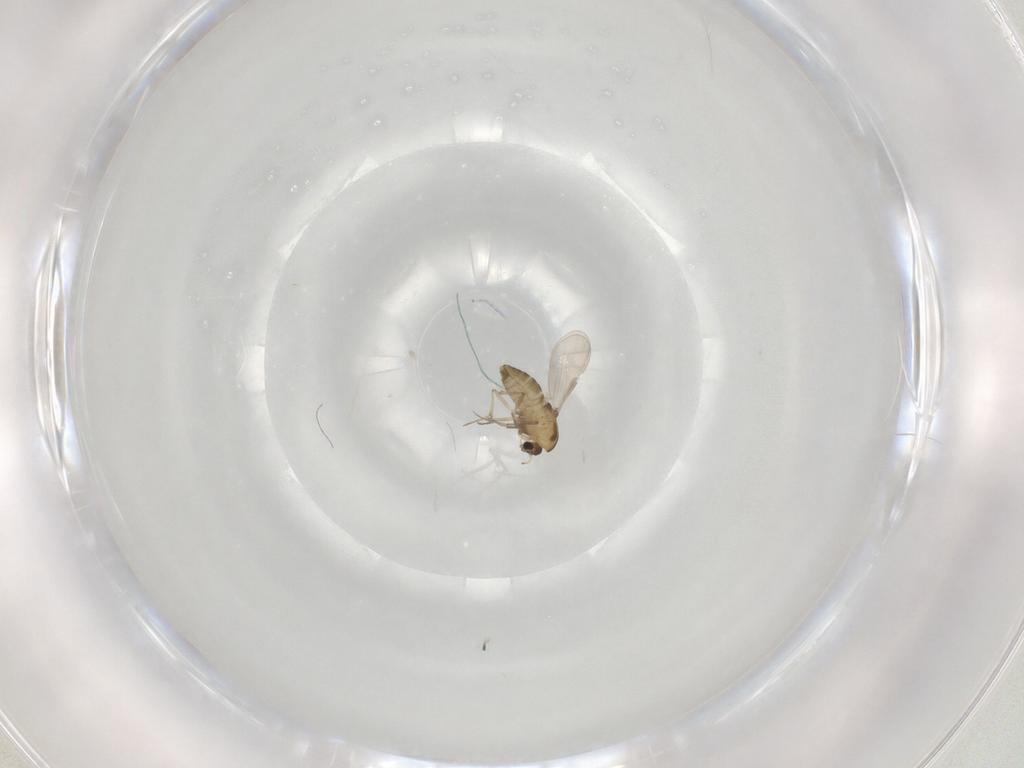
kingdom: Animalia
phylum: Arthropoda
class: Insecta
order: Diptera
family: Chironomidae
